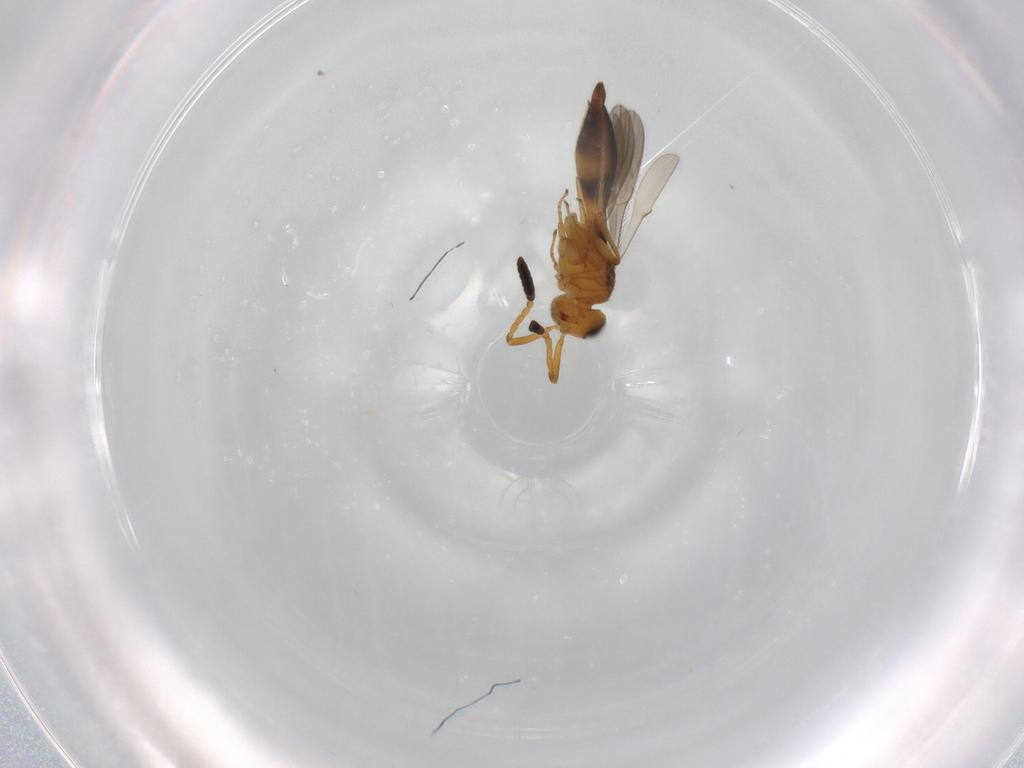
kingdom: Animalia
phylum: Arthropoda
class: Insecta
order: Hymenoptera
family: Scelionidae
